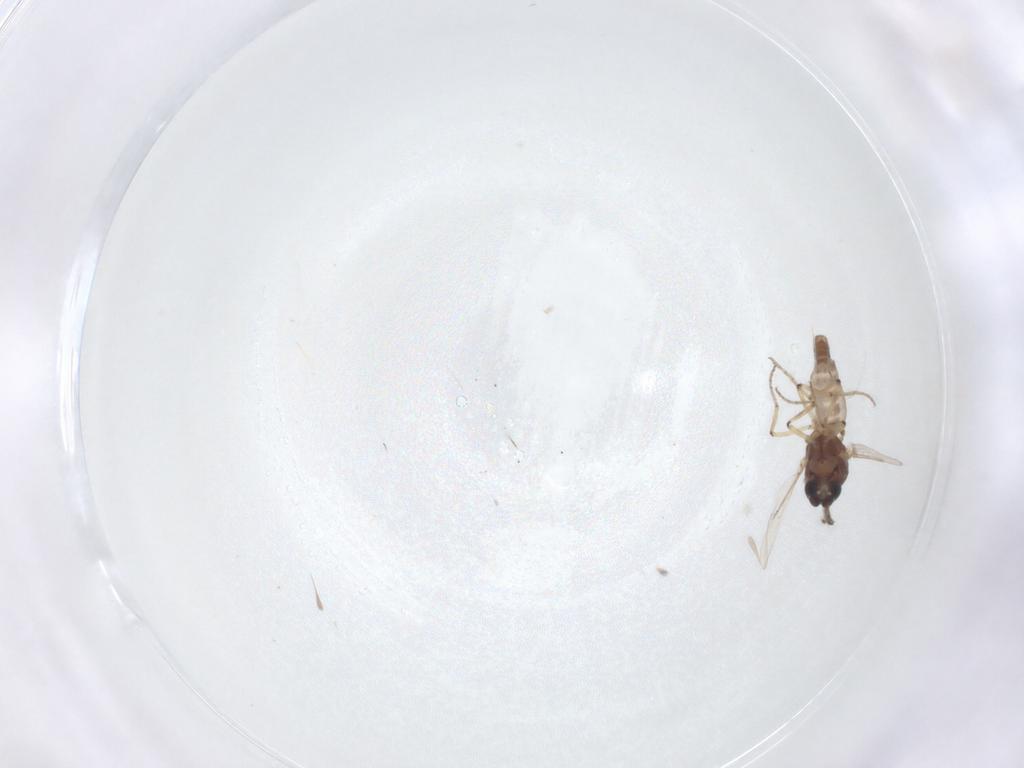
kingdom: Animalia
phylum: Arthropoda
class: Insecta
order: Diptera
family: Ceratopogonidae
